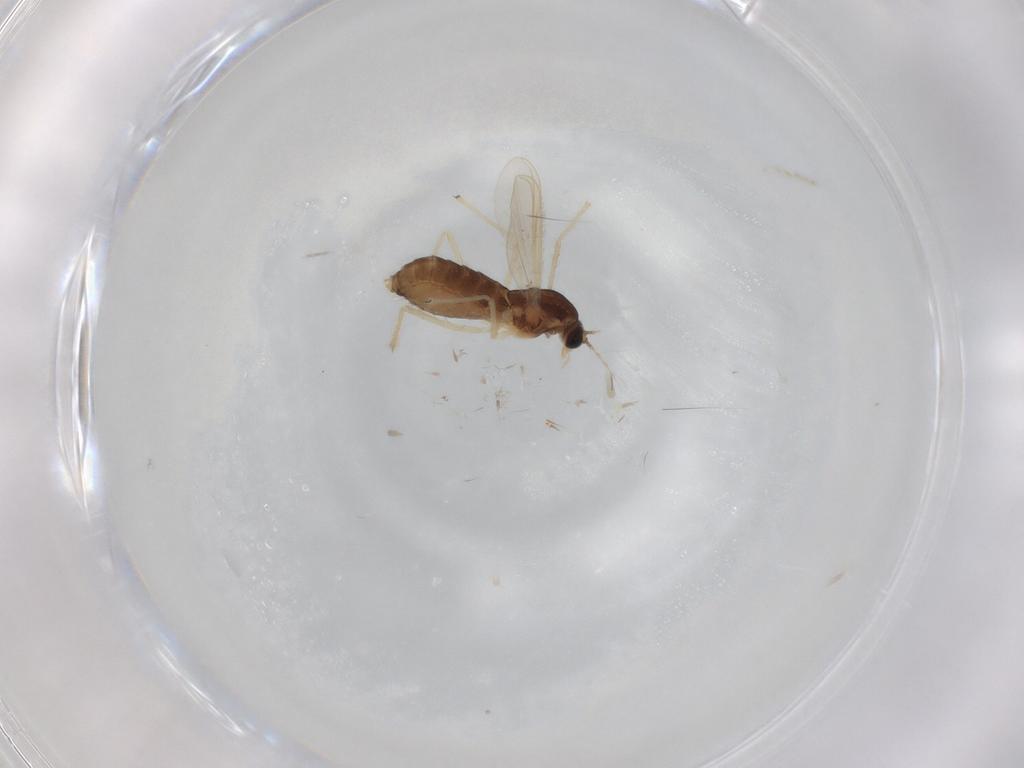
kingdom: Animalia
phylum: Arthropoda
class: Insecta
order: Diptera
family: Chironomidae
